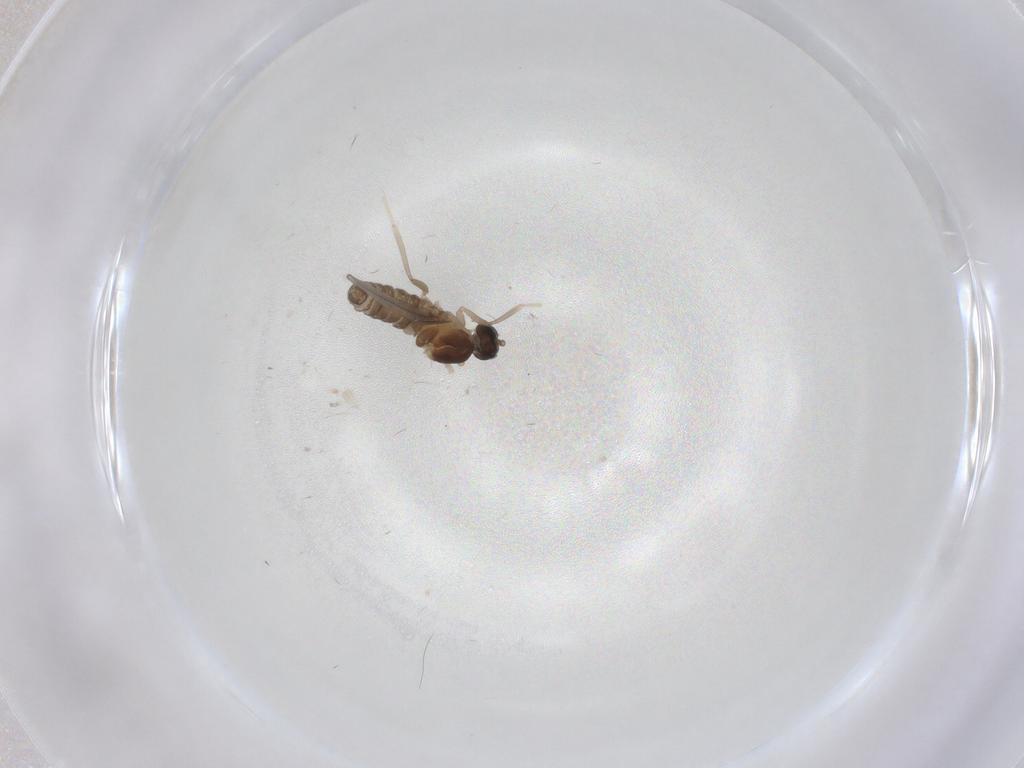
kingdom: Animalia
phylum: Arthropoda
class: Insecta
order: Diptera
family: Cecidomyiidae
